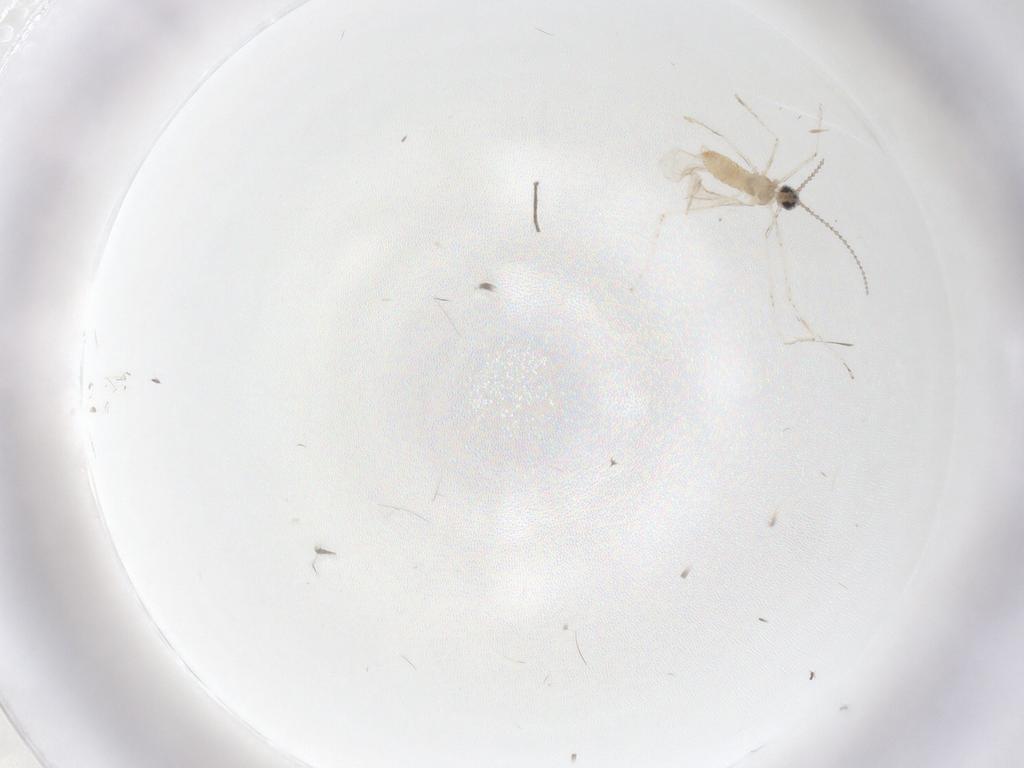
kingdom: Animalia
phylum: Arthropoda
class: Insecta
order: Diptera
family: Cecidomyiidae
